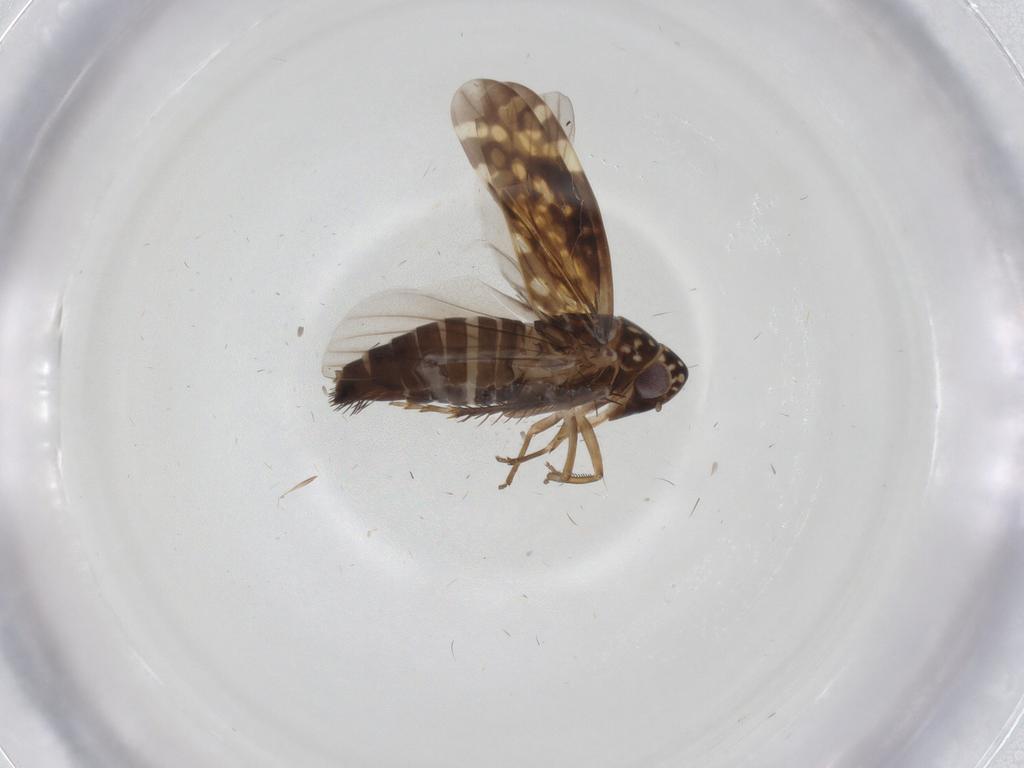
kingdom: Animalia
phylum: Arthropoda
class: Insecta
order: Hemiptera
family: Cicadellidae
